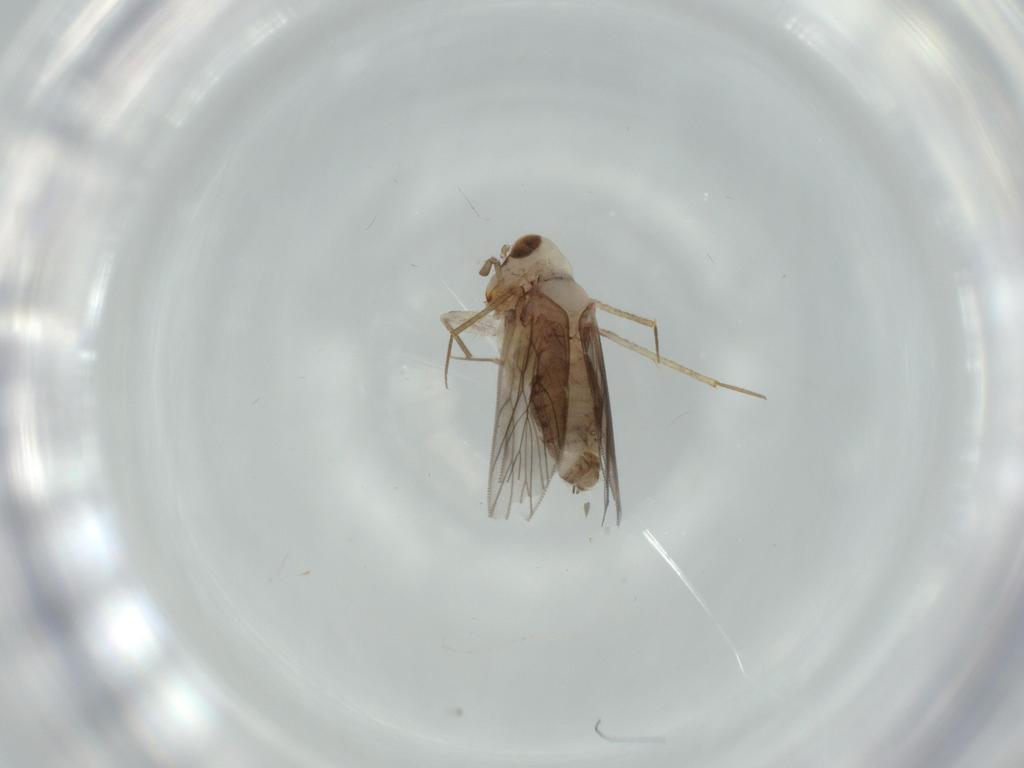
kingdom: Animalia
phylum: Arthropoda
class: Insecta
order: Psocodea
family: Lepidopsocidae
